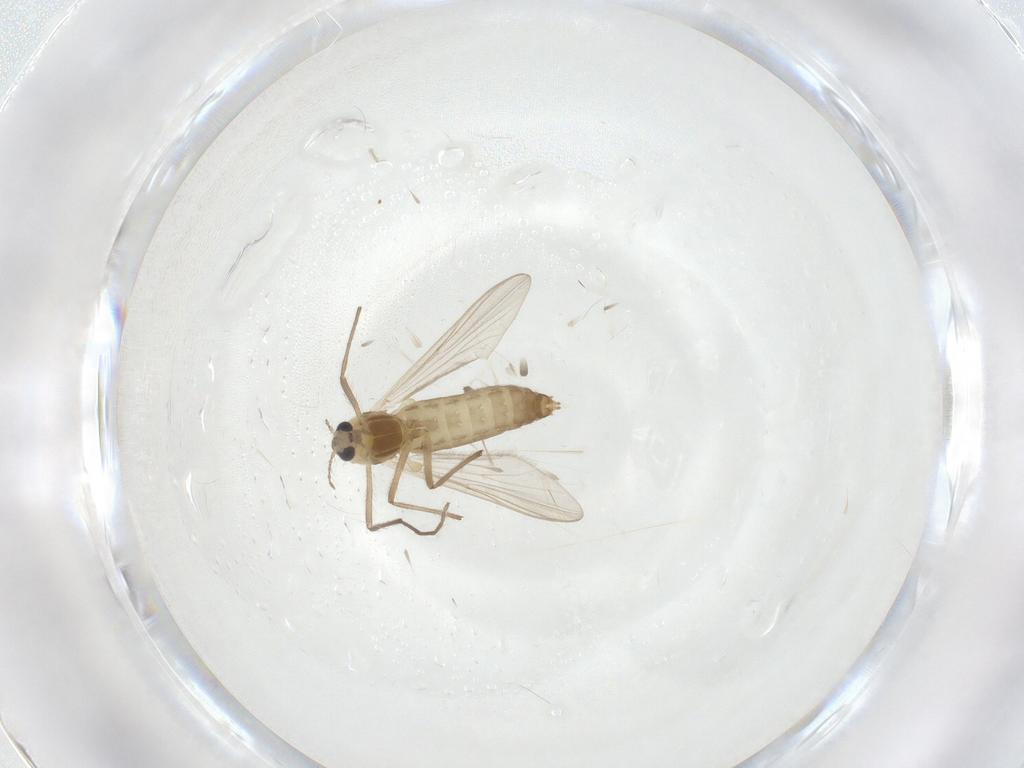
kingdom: Animalia
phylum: Arthropoda
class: Insecta
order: Diptera
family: Chironomidae
